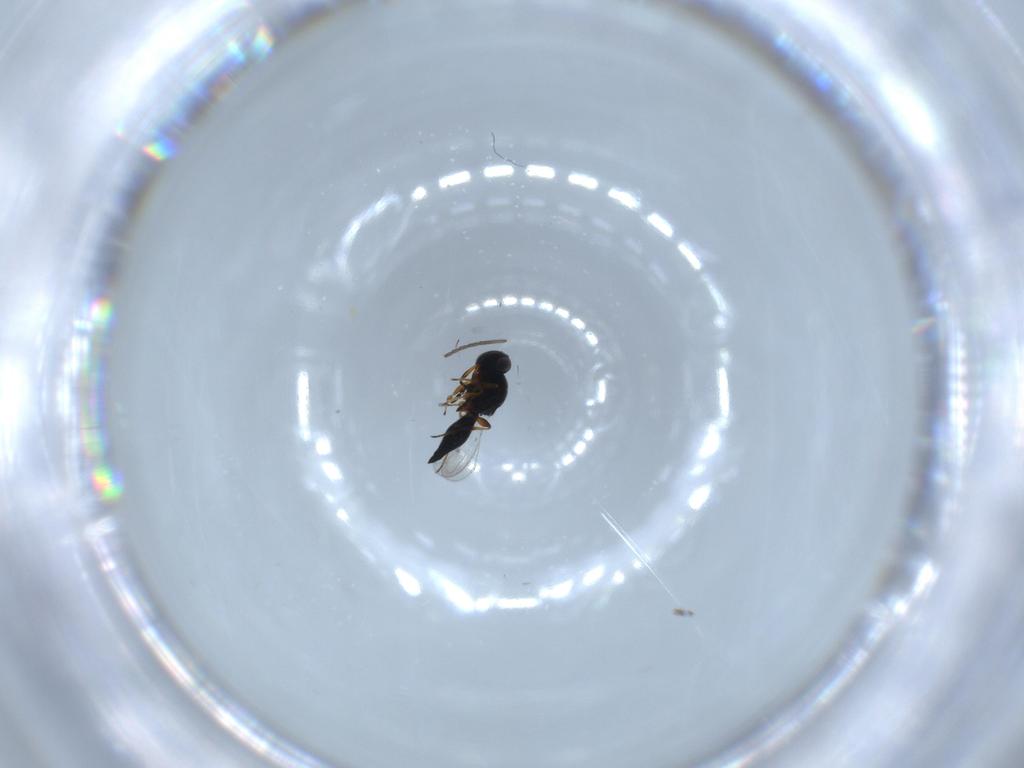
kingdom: Animalia
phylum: Arthropoda
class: Insecta
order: Hymenoptera
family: Platygastridae
